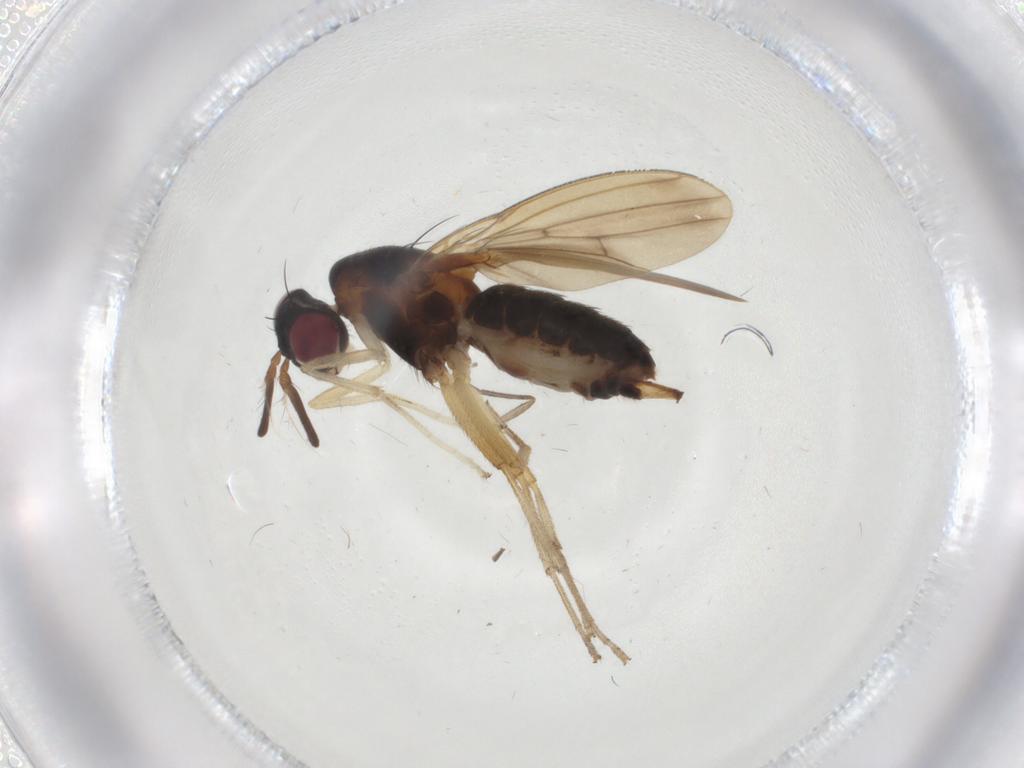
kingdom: Animalia
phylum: Arthropoda
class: Insecta
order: Diptera
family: Lauxaniidae
